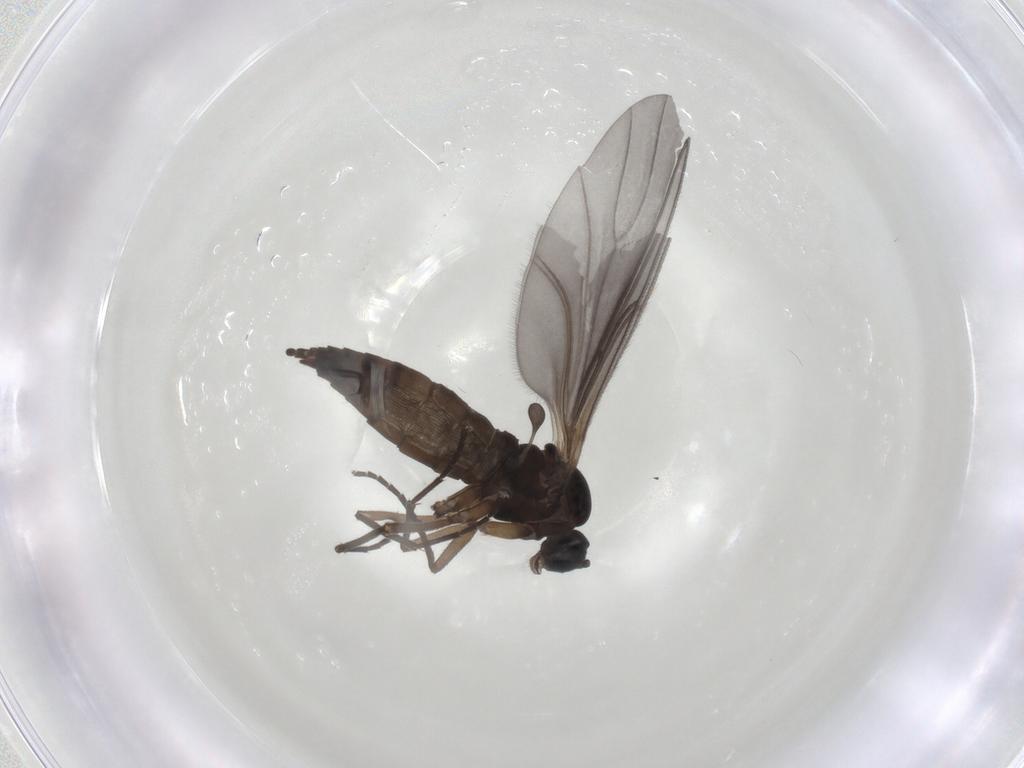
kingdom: Animalia
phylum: Arthropoda
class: Insecta
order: Diptera
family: Sciaridae
